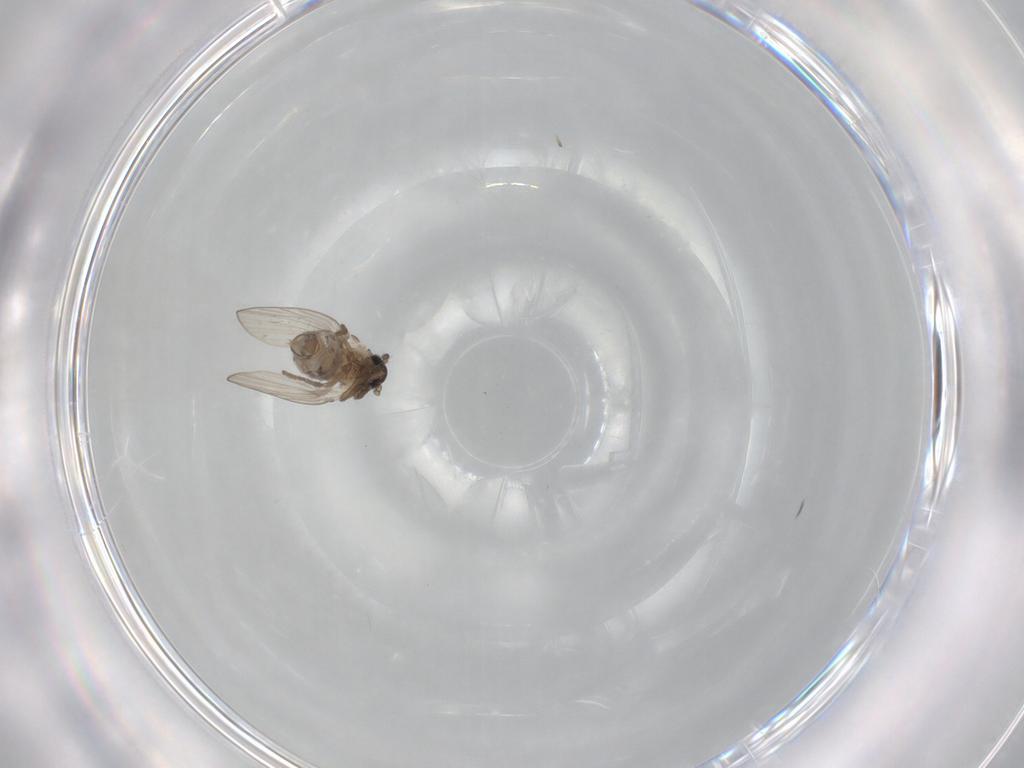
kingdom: Animalia
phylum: Arthropoda
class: Insecta
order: Diptera
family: Psychodidae
